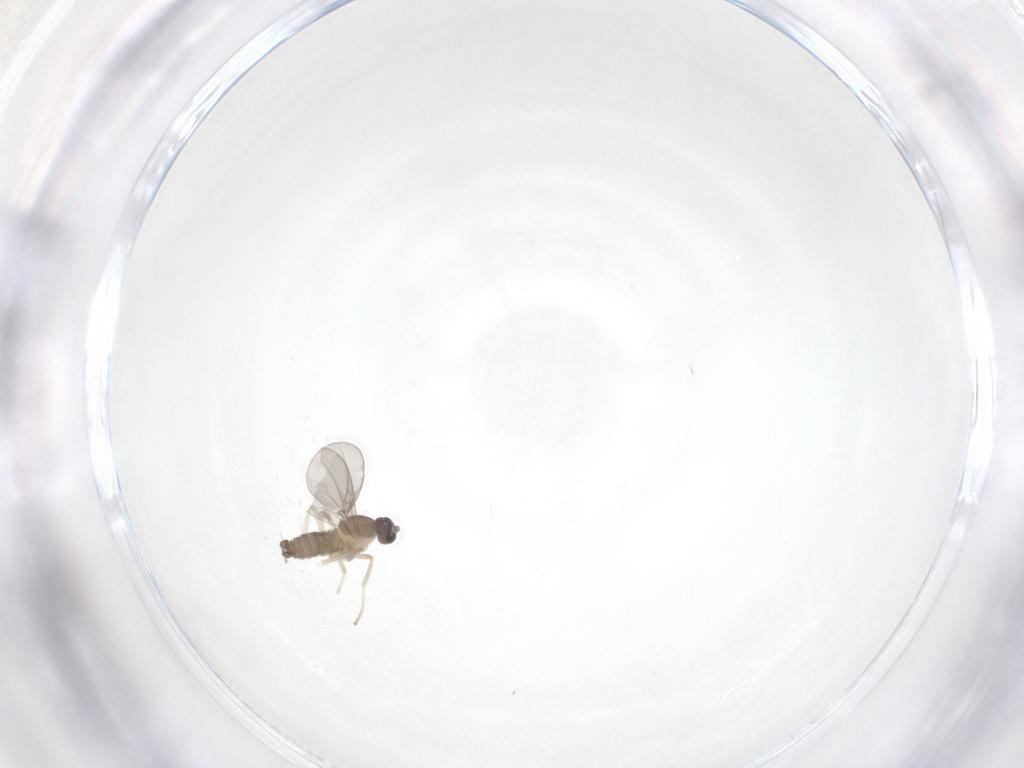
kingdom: Animalia
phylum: Arthropoda
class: Insecta
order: Diptera
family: Cecidomyiidae
